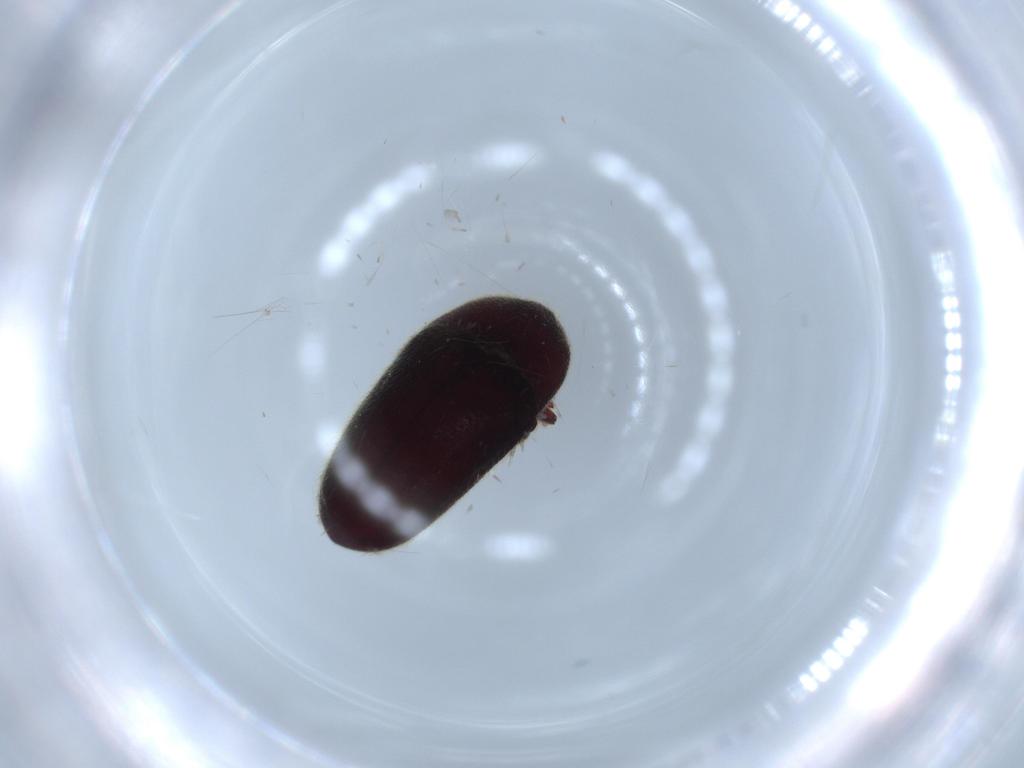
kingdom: Animalia
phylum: Arthropoda
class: Insecta
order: Coleoptera
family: Throscidae
